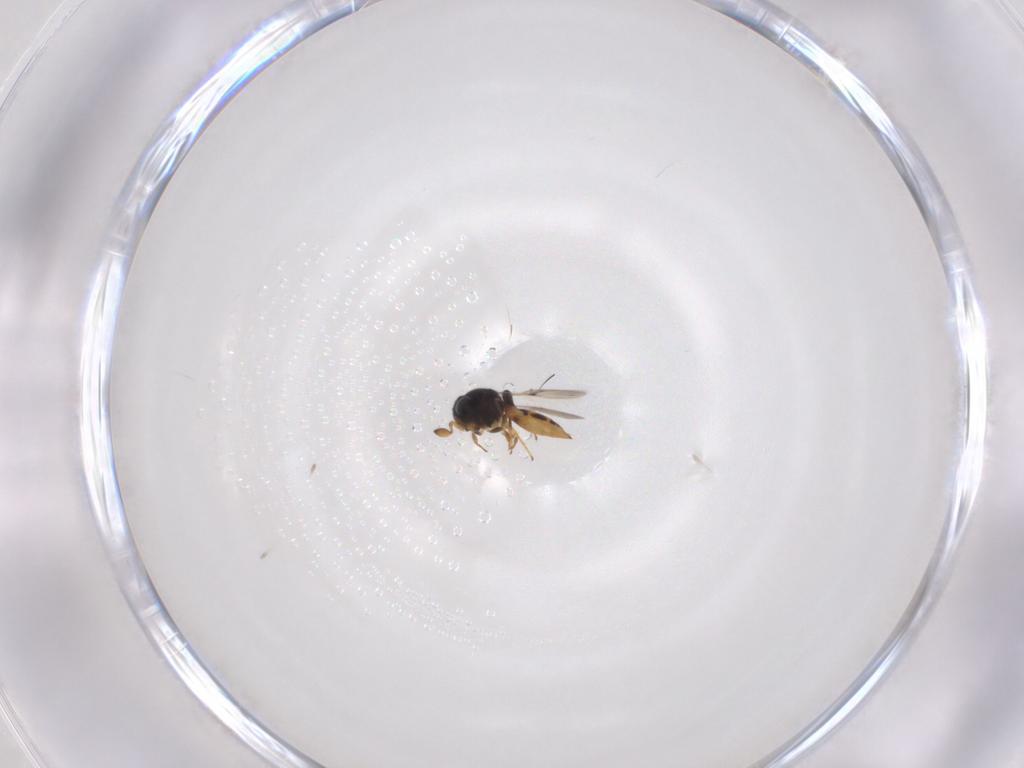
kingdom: Animalia
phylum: Arthropoda
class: Insecta
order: Hymenoptera
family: Scelionidae
